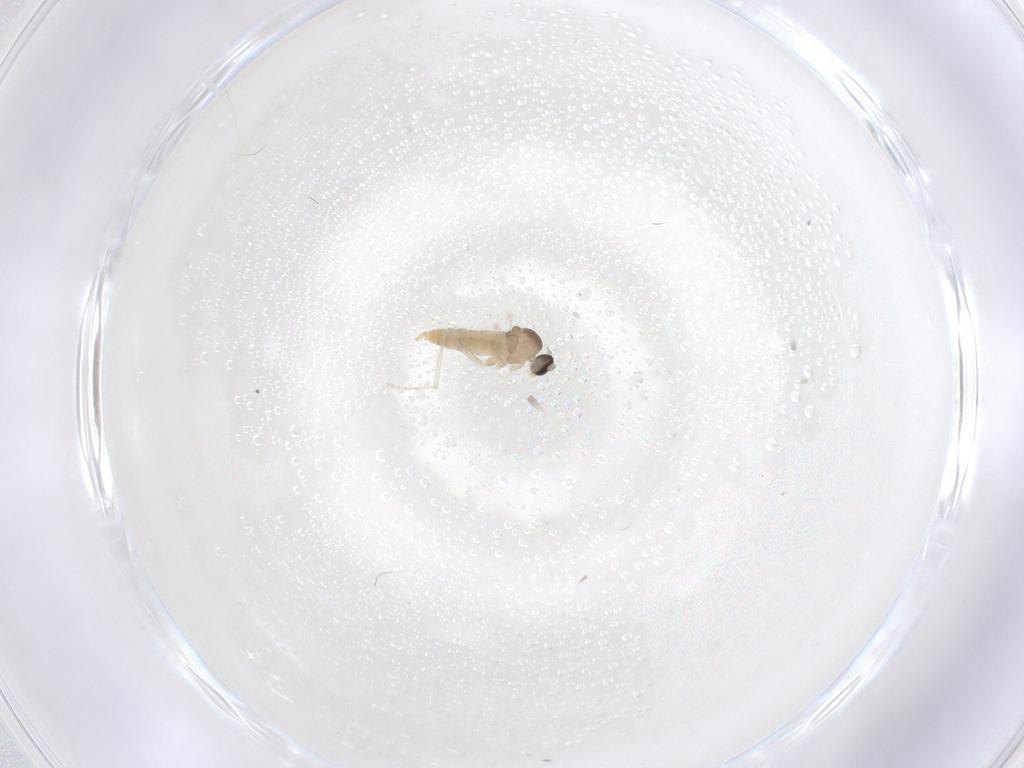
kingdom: Animalia
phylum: Arthropoda
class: Insecta
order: Diptera
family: Cecidomyiidae
